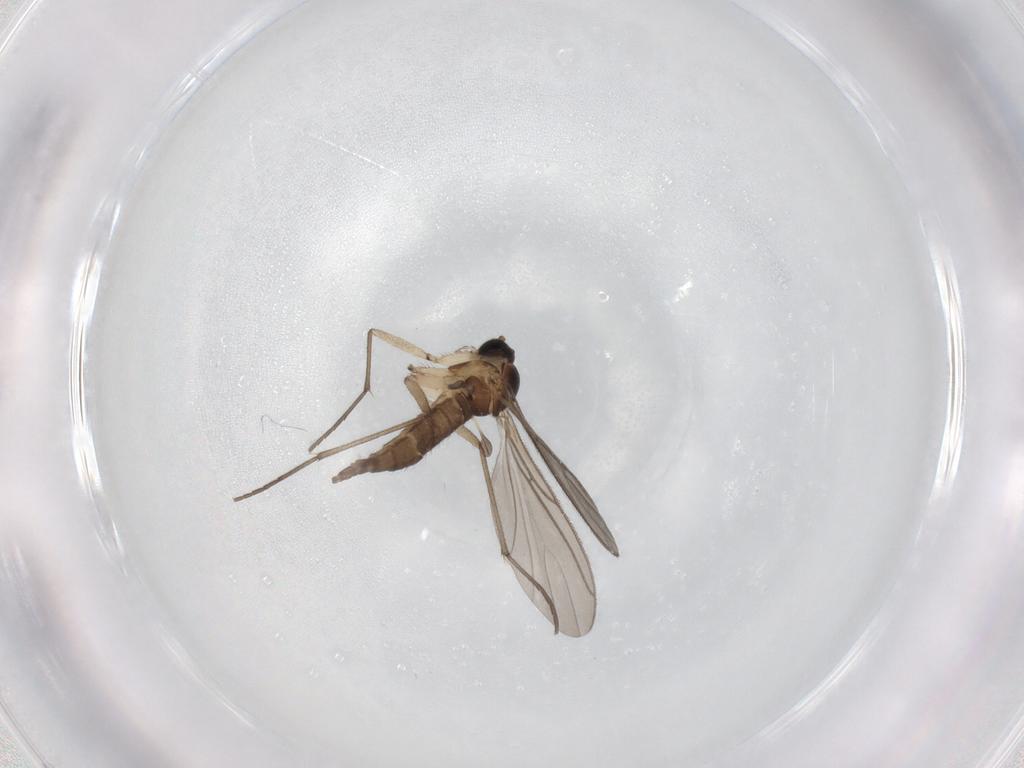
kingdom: Animalia
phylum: Arthropoda
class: Insecta
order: Diptera
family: Sciaridae
